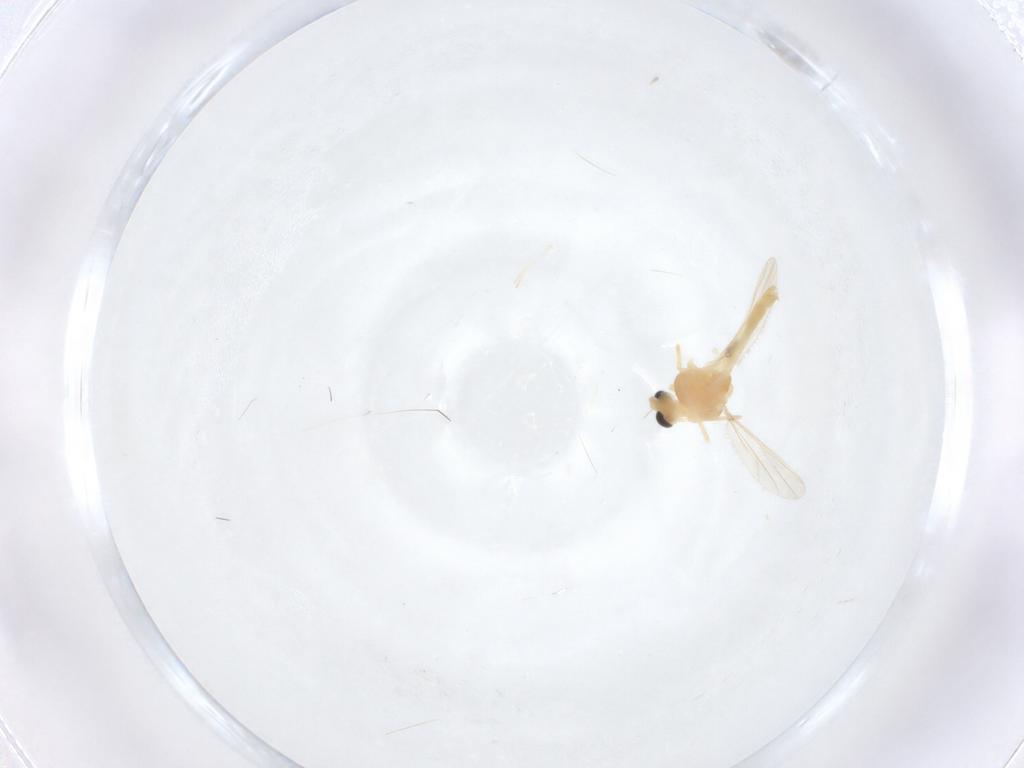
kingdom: Animalia
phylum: Arthropoda
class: Insecta
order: Diptera
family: Chironomidae
